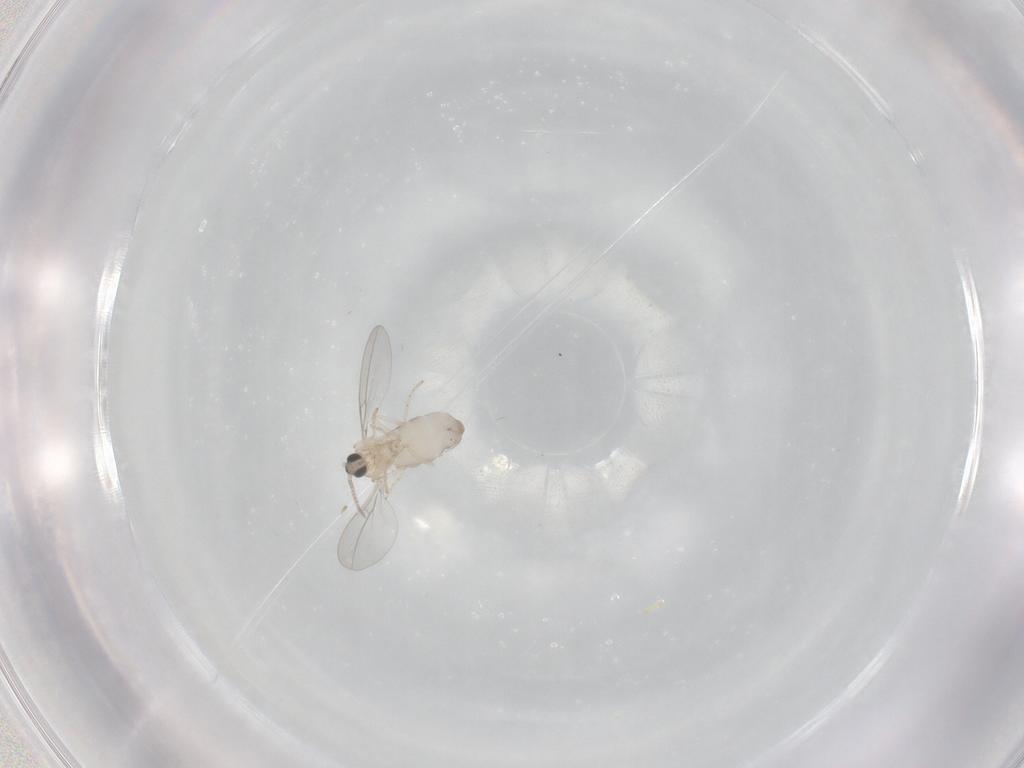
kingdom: Animalia
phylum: Arthropoda
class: Insecta
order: Diptera
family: Cecidomyiidae
